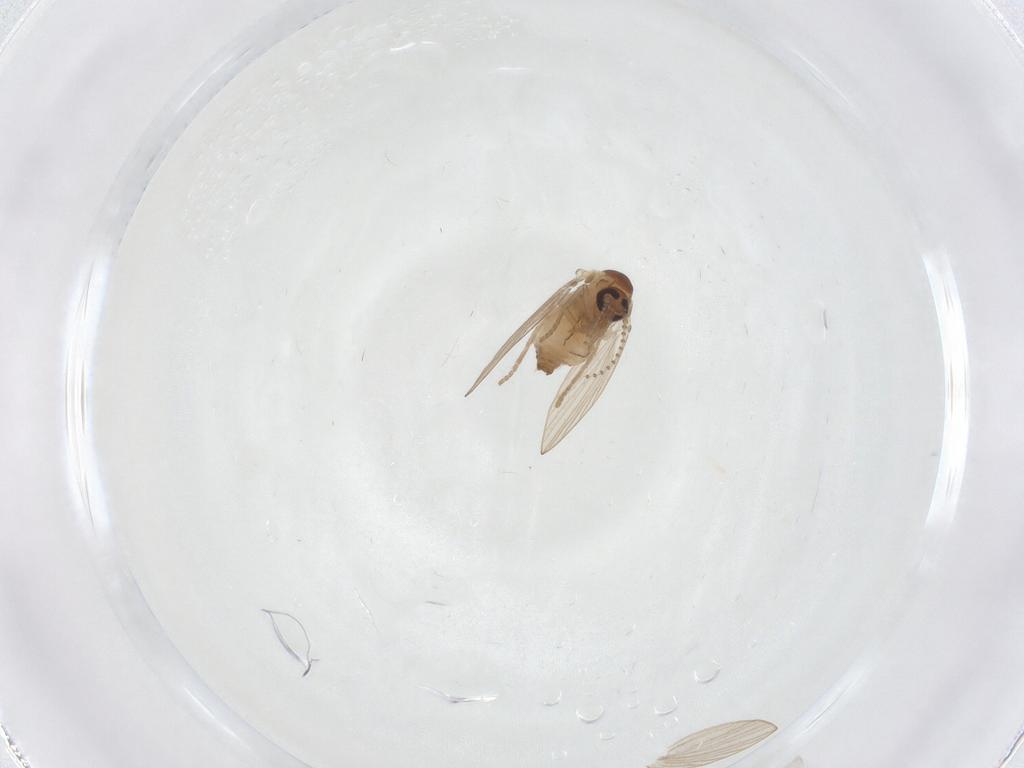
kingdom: Animalia
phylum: Arthropoda
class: Insecta
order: Diptera
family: Psychodidae
